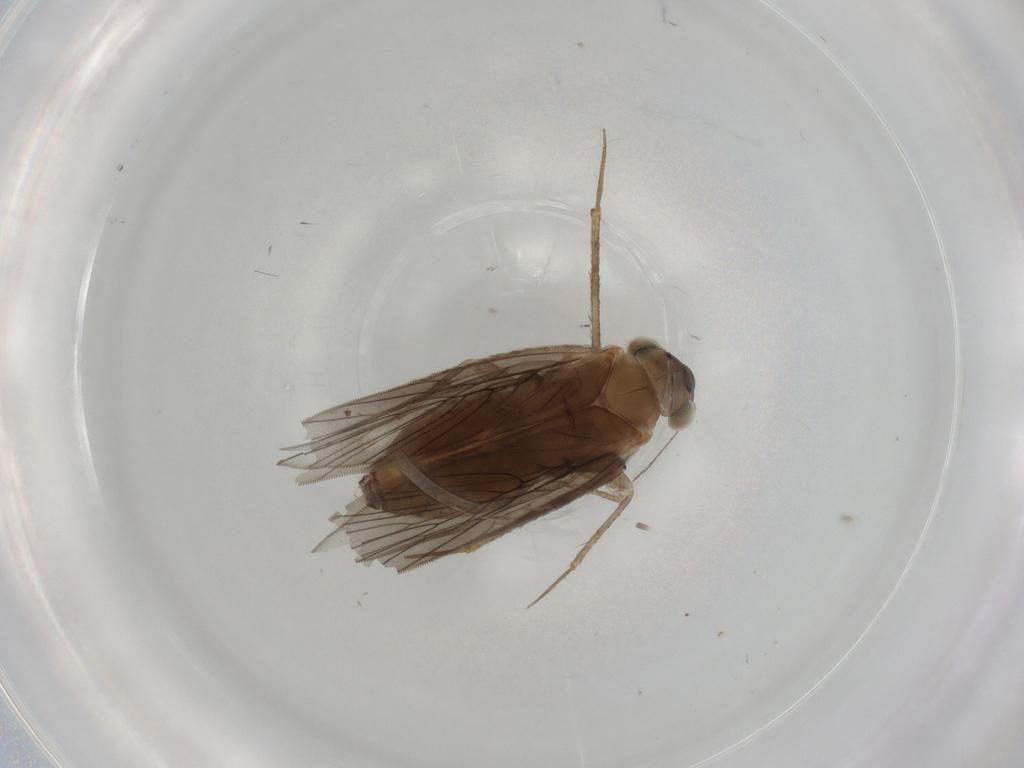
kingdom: Animalia
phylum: Arthropoda
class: Insecta
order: Psocodea
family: Lepidopsocidae
